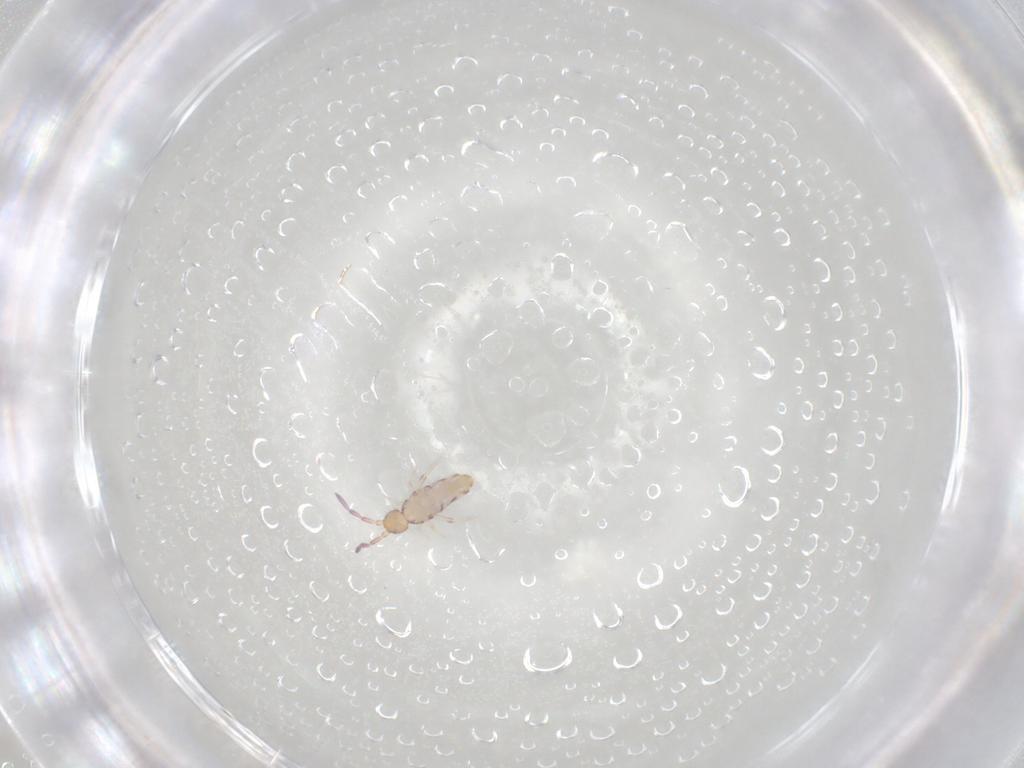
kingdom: Animalia
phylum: Arthropoda
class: Collembola
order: Entomobryomorpha
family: Entomobryidae
